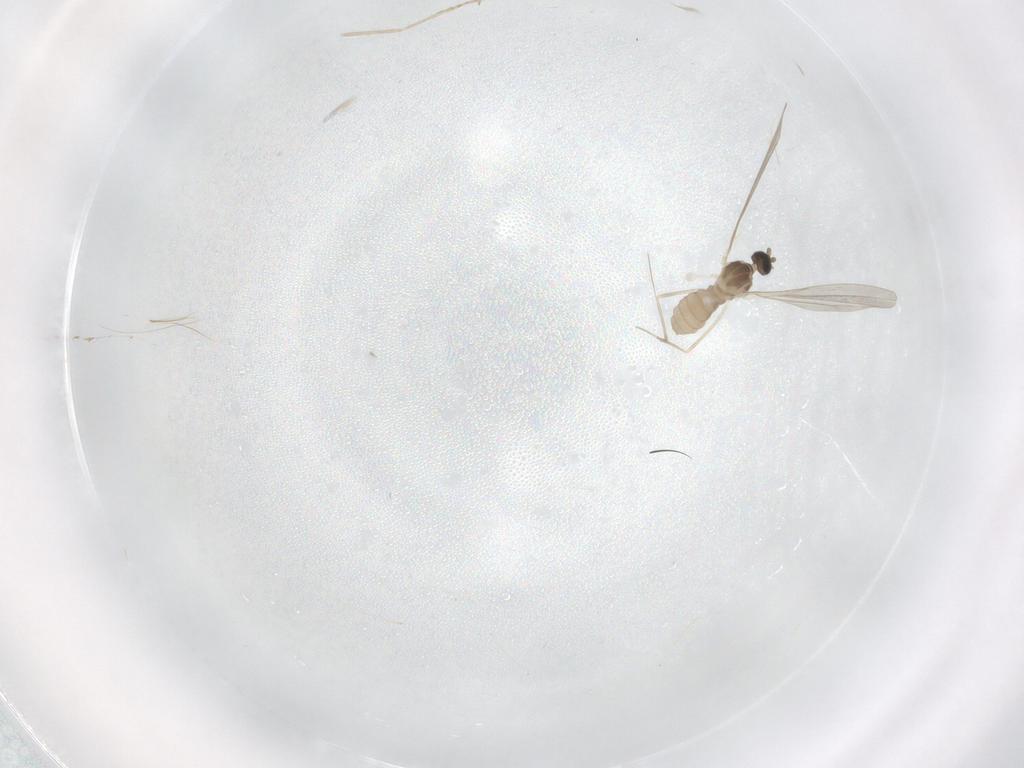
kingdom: Animalia
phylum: Arthropoda
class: Insecta
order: Diptera
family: Cecidomyiidae
